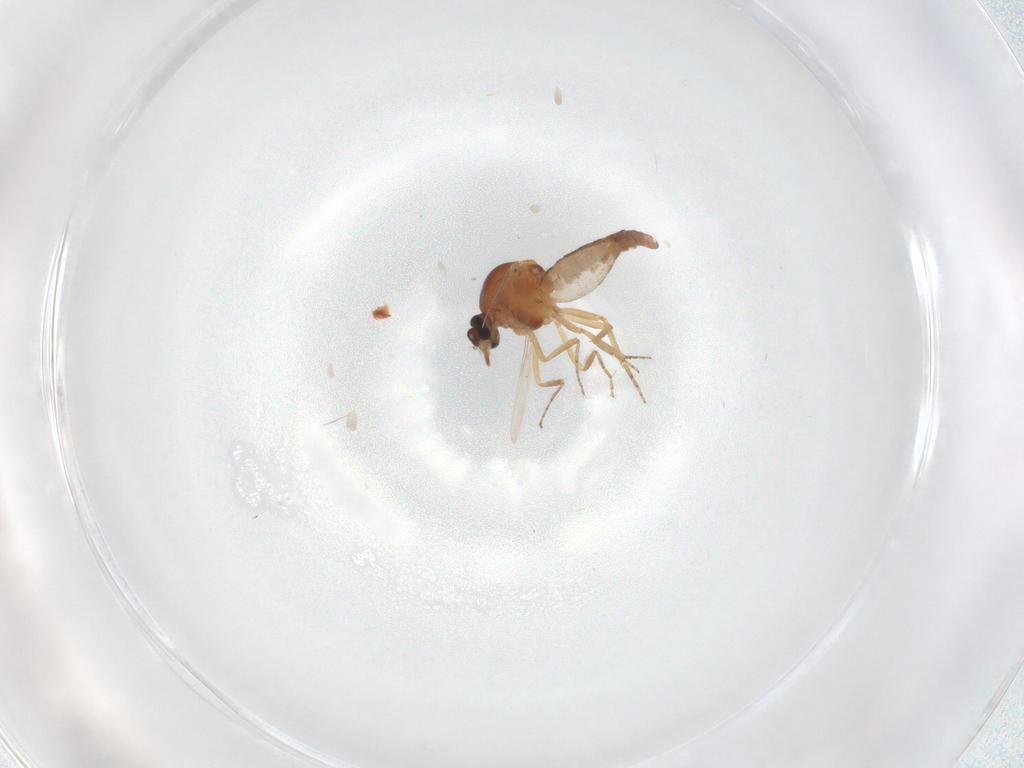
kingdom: Animalia
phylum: Arthropoda
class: Insecta
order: Diptera
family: Ceratopogonidae
